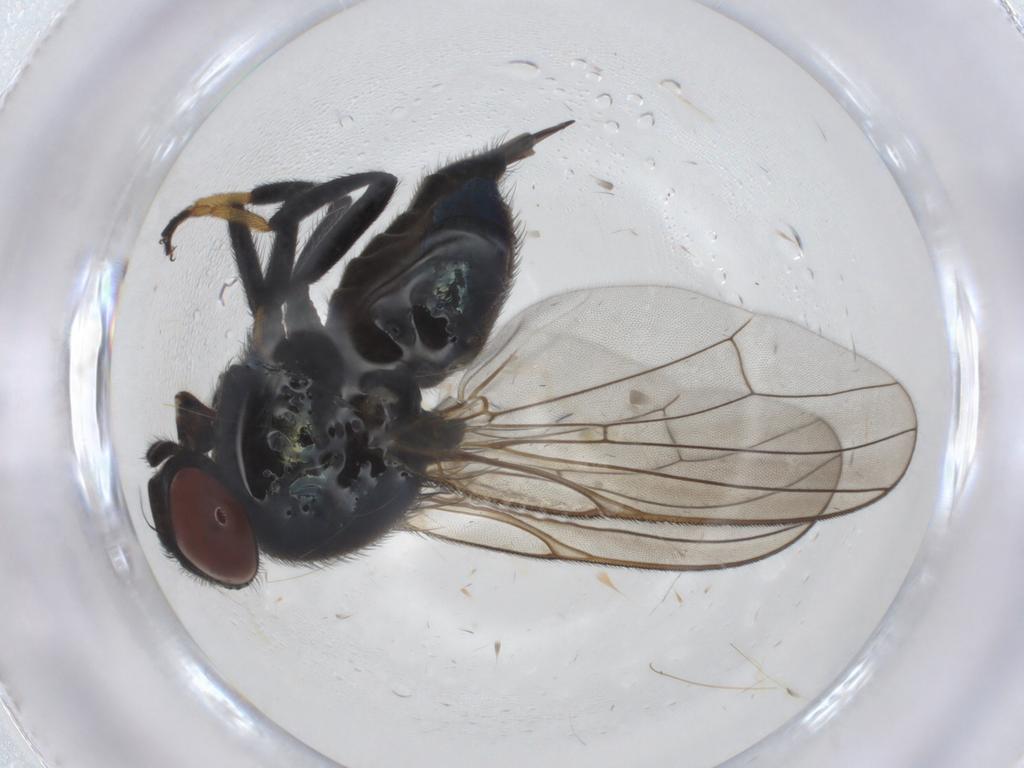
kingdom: Animalia
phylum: Arthropoda
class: Insecta
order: Diptera
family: Lonchaeidae
